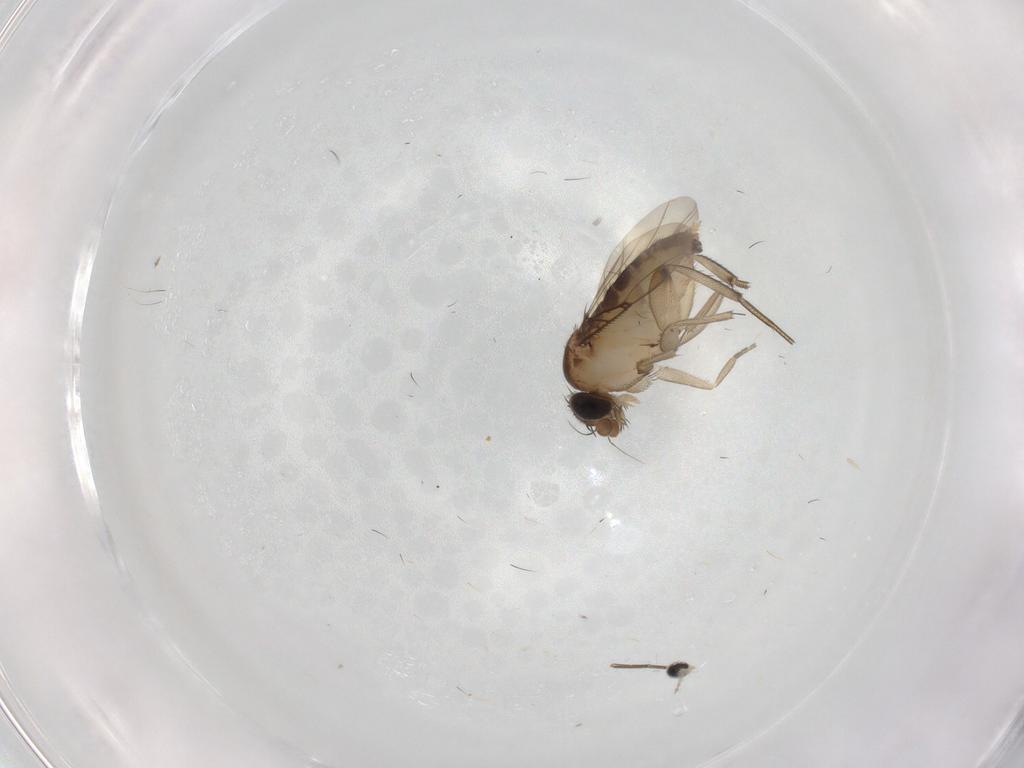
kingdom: Animalia
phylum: Arthropoda
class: Insecta
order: Diptera
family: Phoridae
